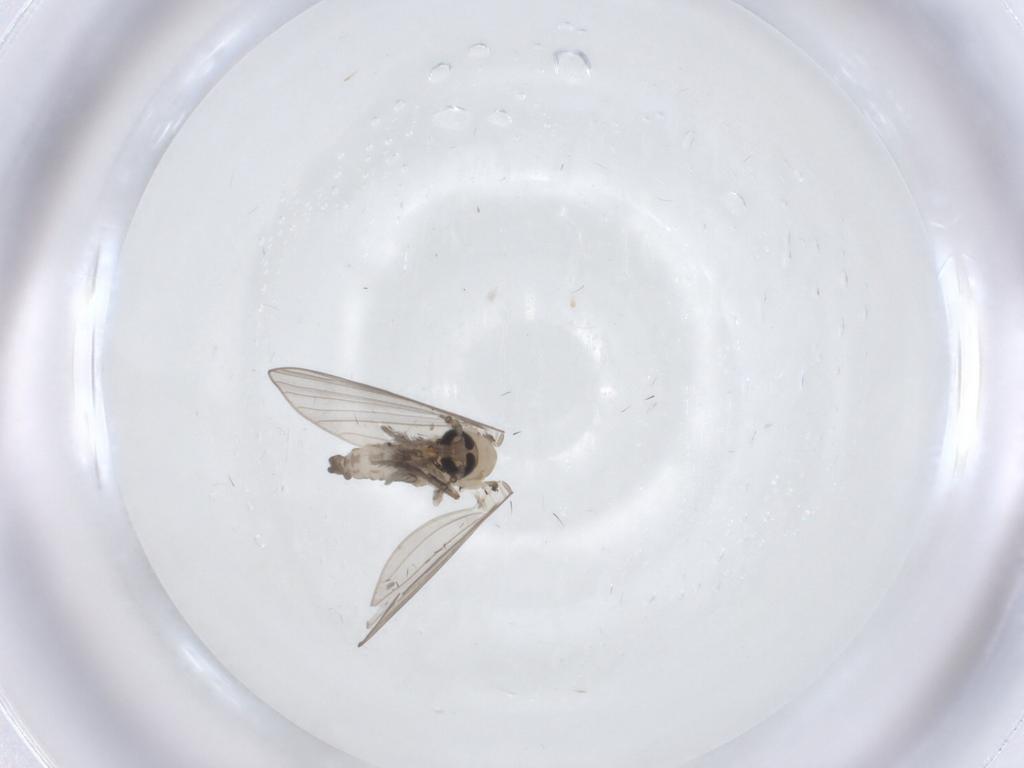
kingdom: Animalia
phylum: Arthropoda
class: Insecta
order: Diptera
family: Psychodidae
